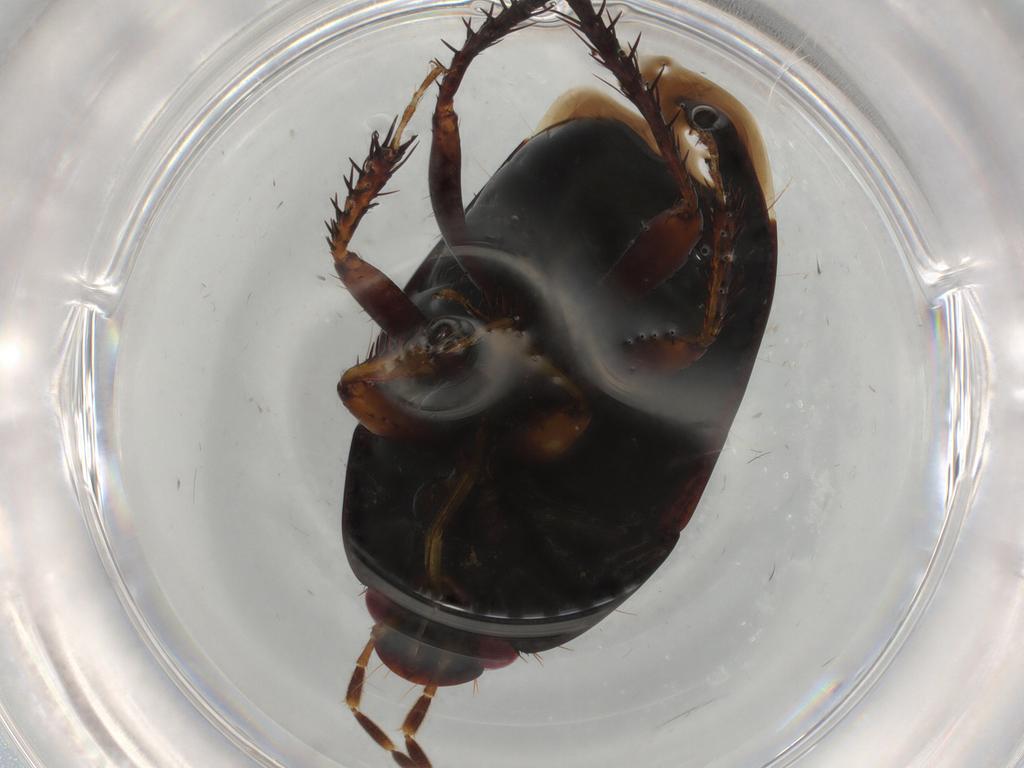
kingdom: Animalia
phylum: Arthropoda
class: Insecta
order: Hemiptera
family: Cydnidae
